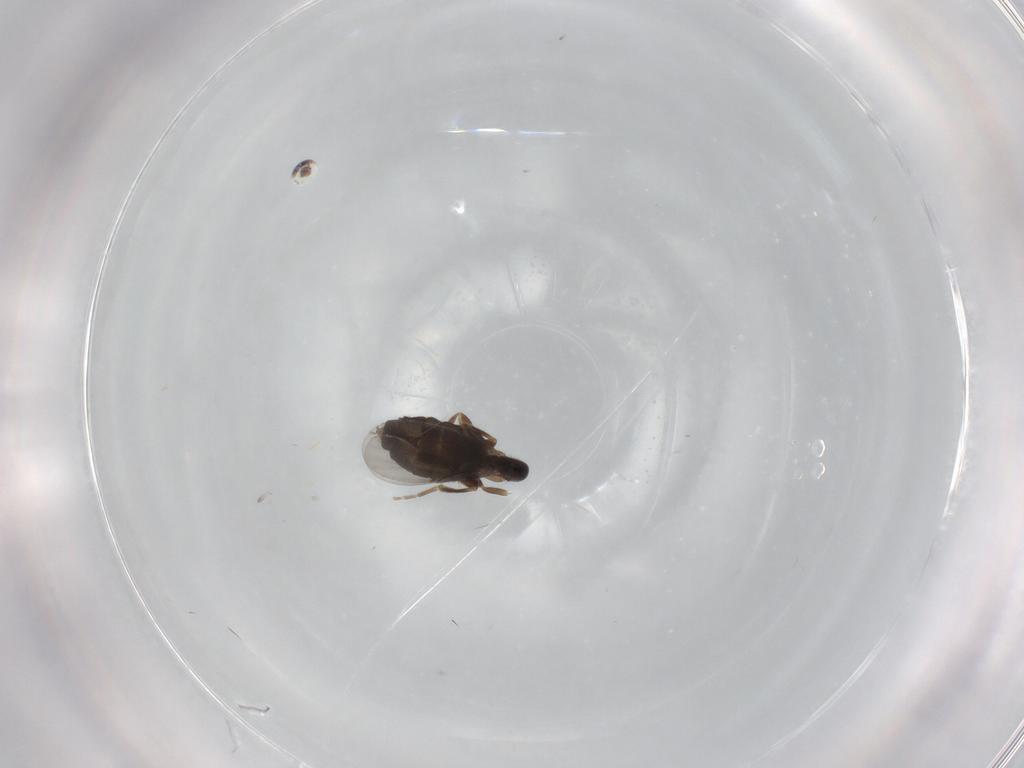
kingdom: Animalia
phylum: Arthropoda
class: Insecta
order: Diptera
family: Phoridae
